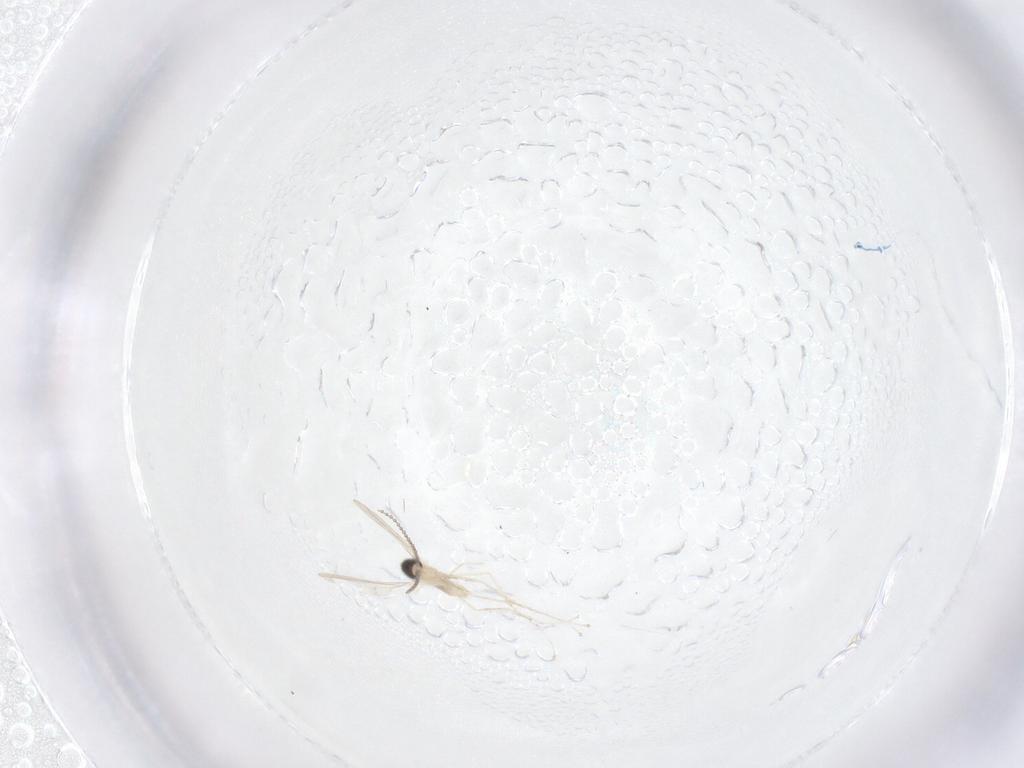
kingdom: Animalia
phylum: Arthropoda
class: Insecta
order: Diptera
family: Cecidomyiidae
